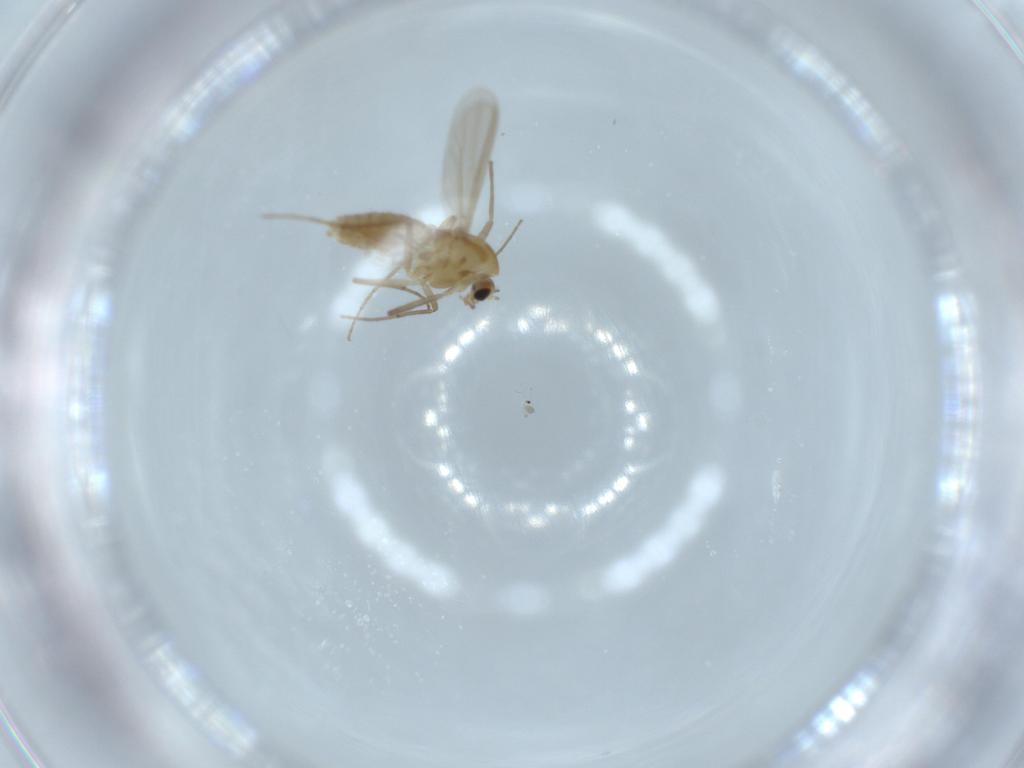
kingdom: Animalia
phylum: Arthropoda
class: Insecta
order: Diptera
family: Chironomidae
